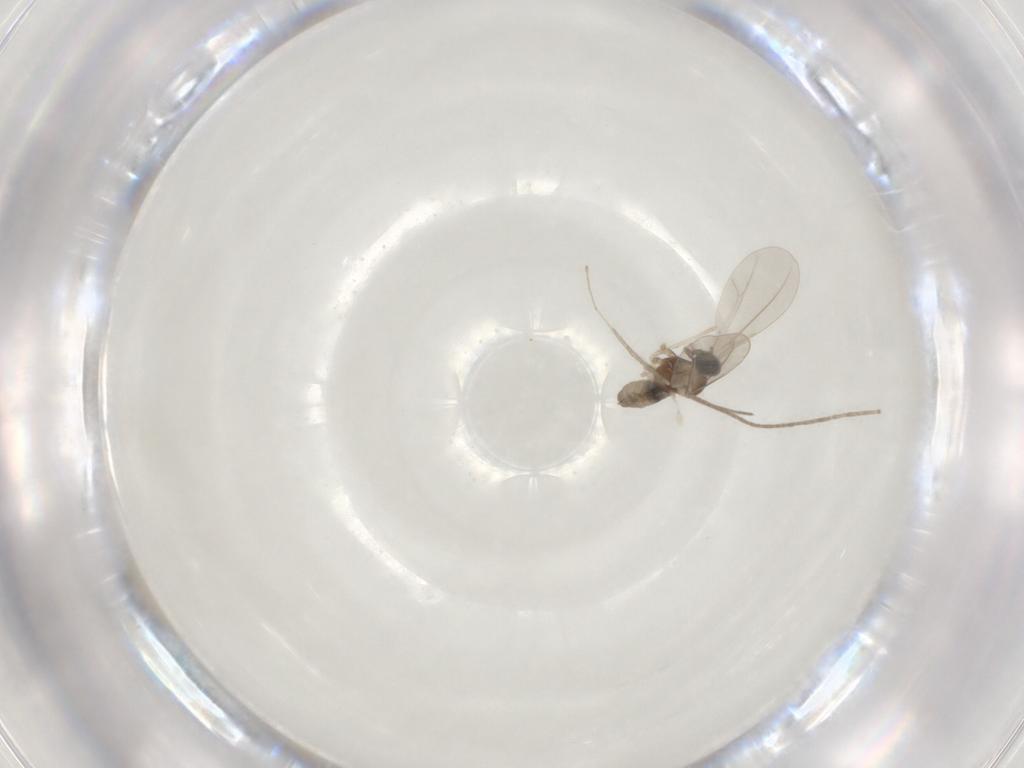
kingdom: Animalia
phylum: Arthropoda
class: Insecta
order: Diptera
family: Cecidomyiidae
